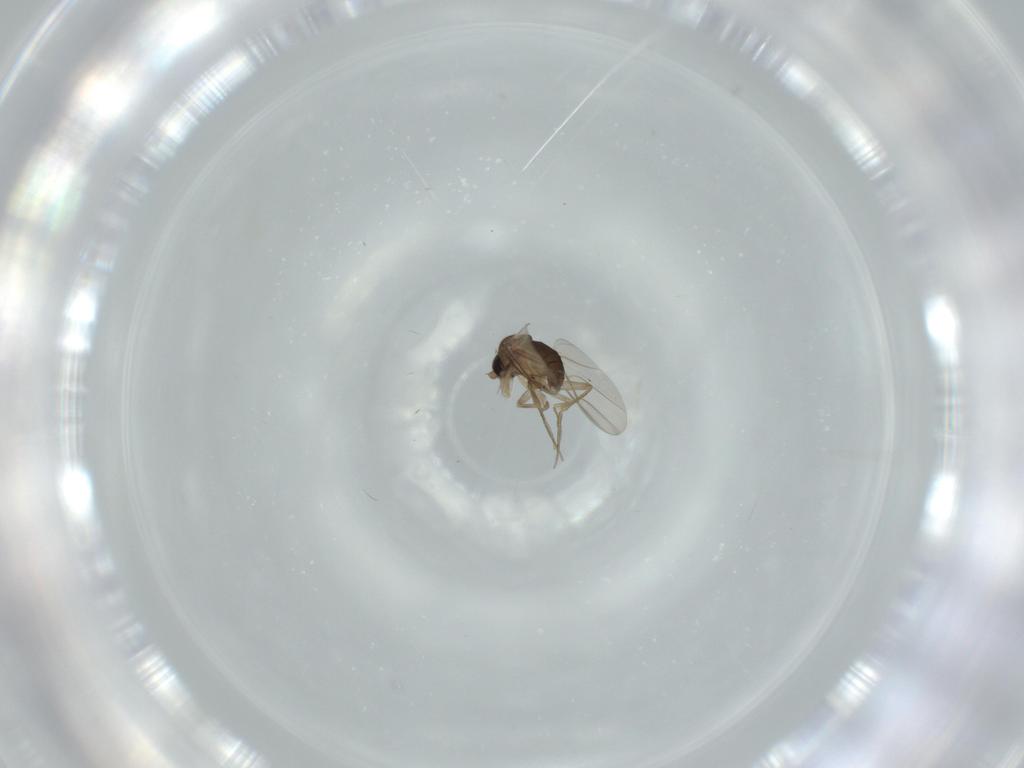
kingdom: Animalia
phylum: Arthropoda
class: Insecta
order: Diptera
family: Phoridae
